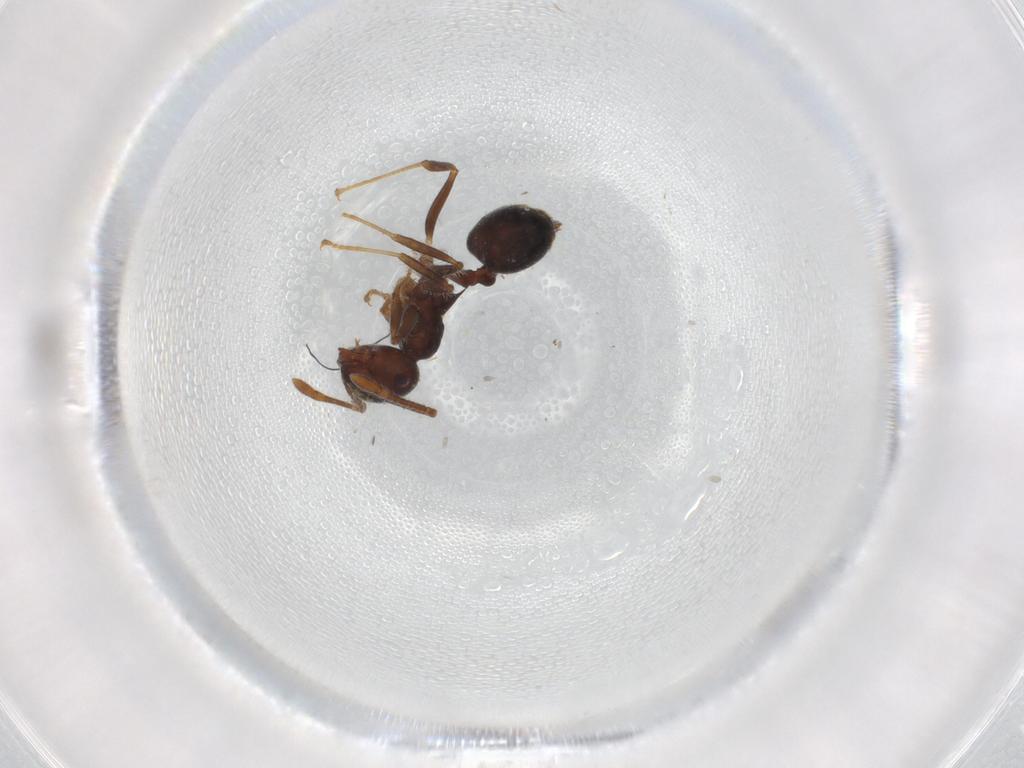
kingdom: Animalia
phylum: Arthropoda
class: Insecta
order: Hymenoptera
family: Formicidae
